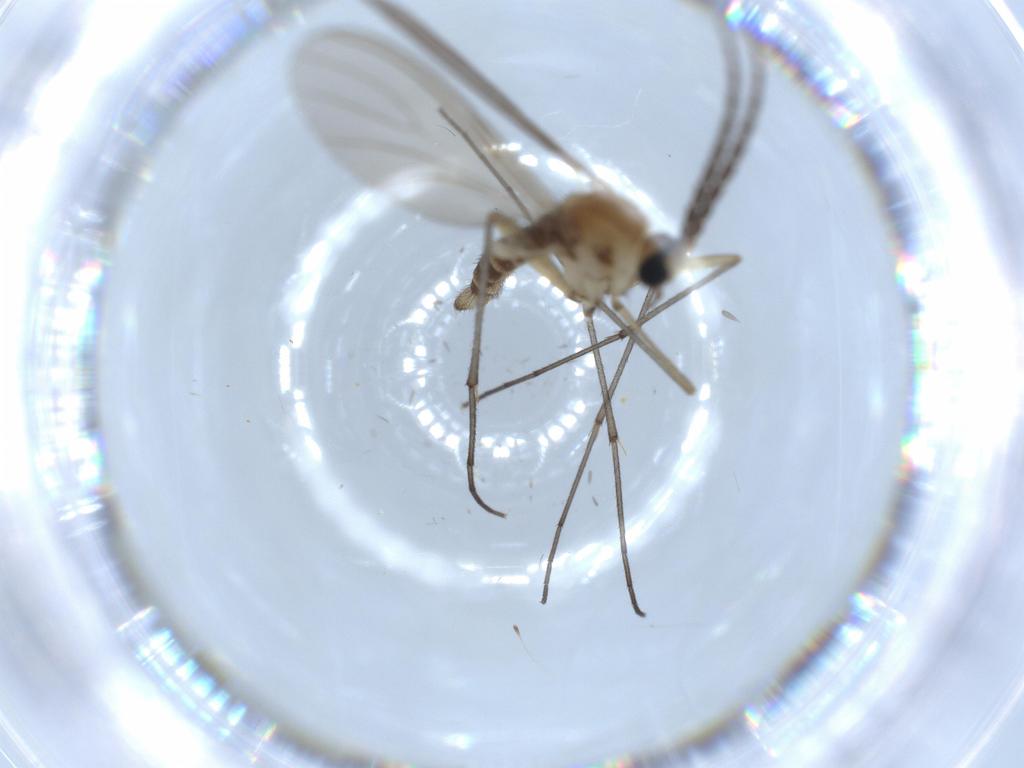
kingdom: Animalia
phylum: Arthropoda
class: Insecta
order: Diptera
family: Sciaridae
